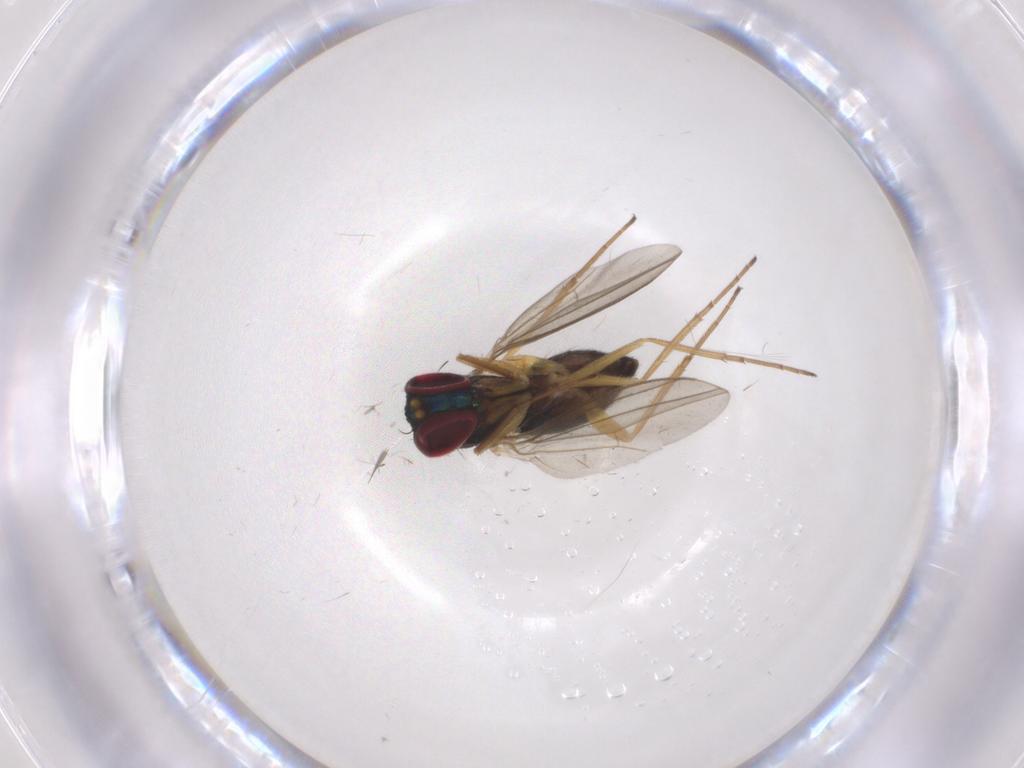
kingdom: Animalia
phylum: Arthropoda
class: Insecta
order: Diptera
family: Dolichopodidae
